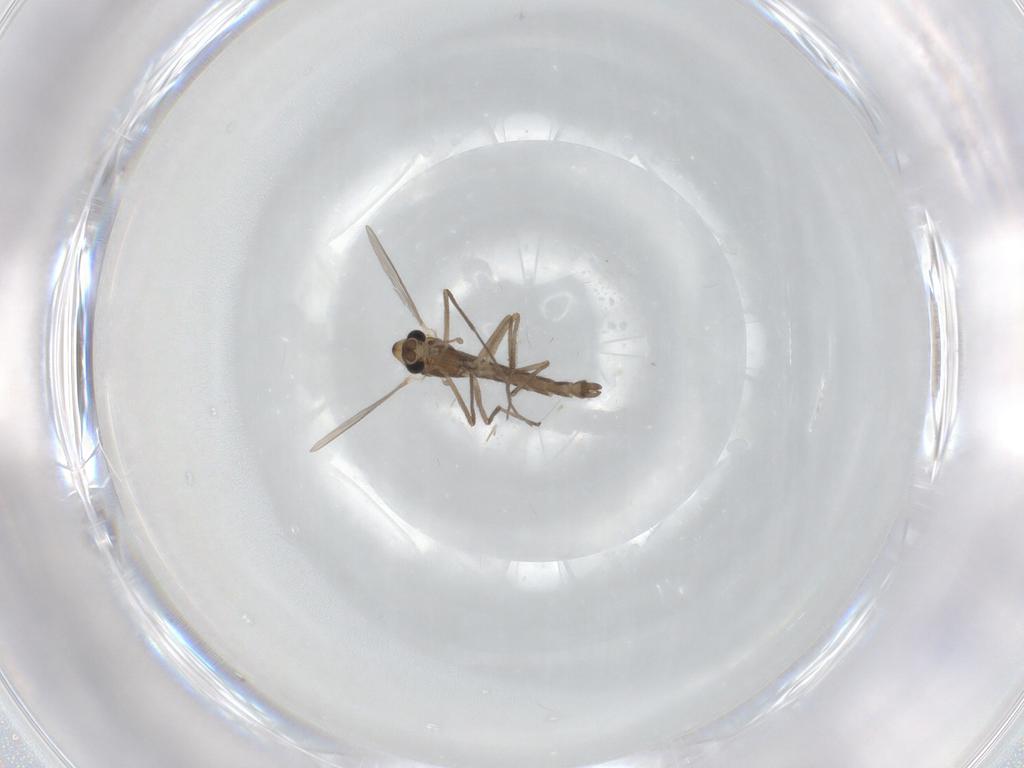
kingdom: Animalia
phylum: Arthropoda
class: Insecta
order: Diptera
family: Chironomidae
